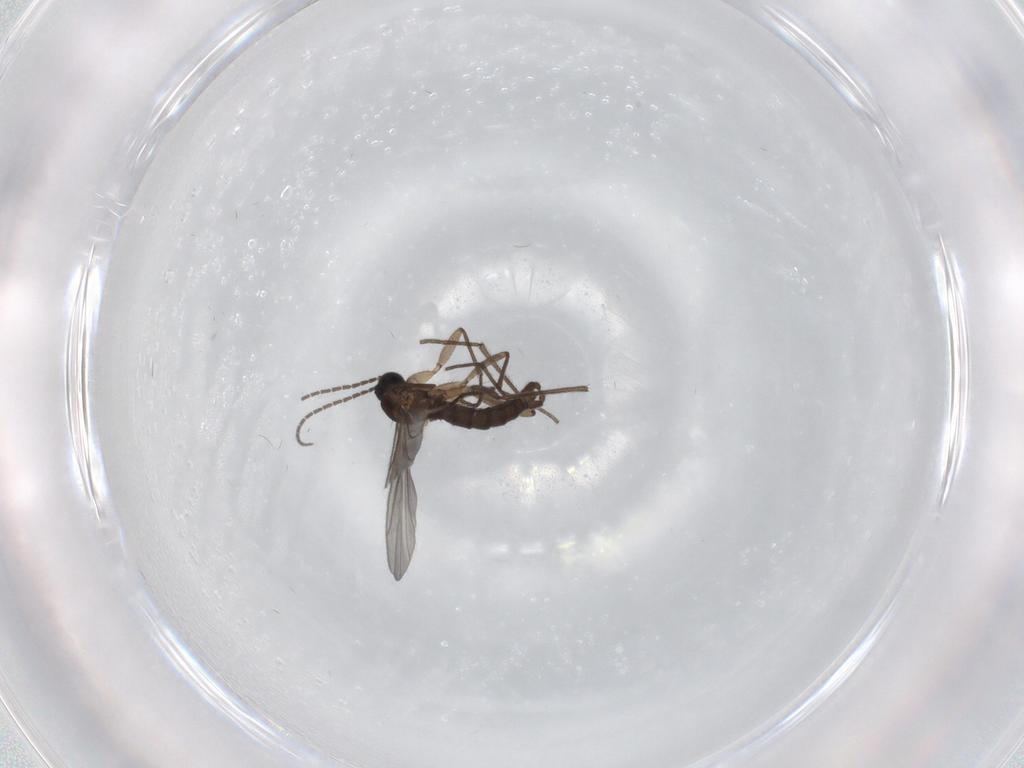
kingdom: Animalia
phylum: Arthropoda
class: Insecta
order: Diptera
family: Sciaridae
